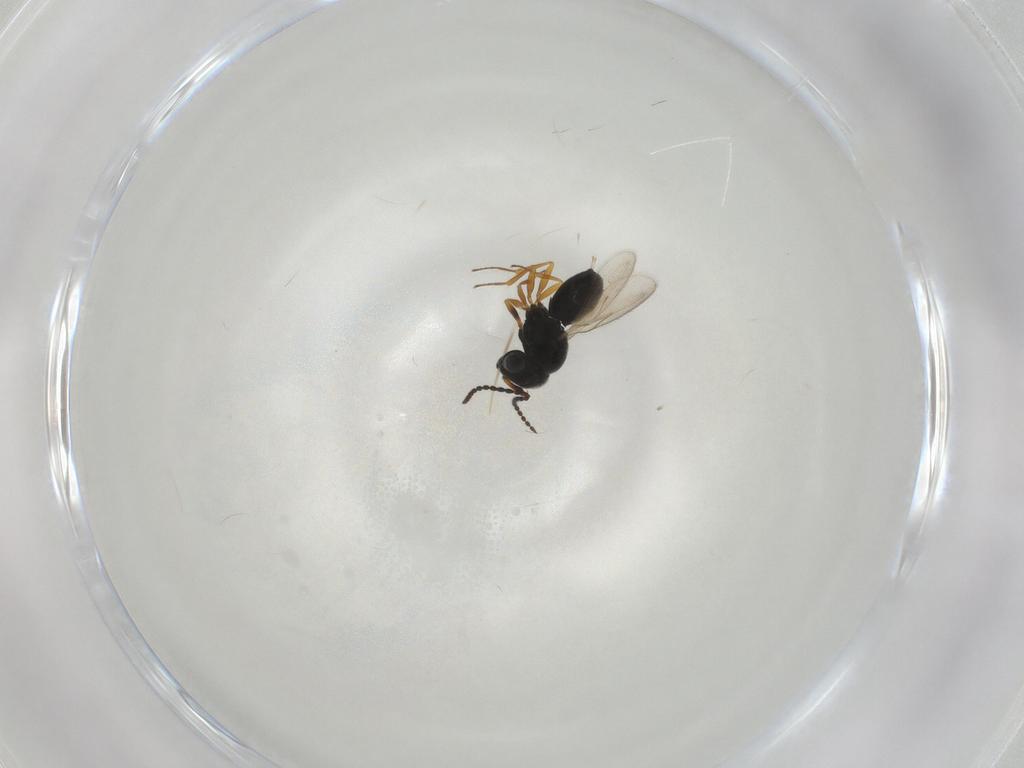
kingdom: Animalia
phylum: Arthropoda
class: Insecta
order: Hymenoptera
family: Scelionidae
